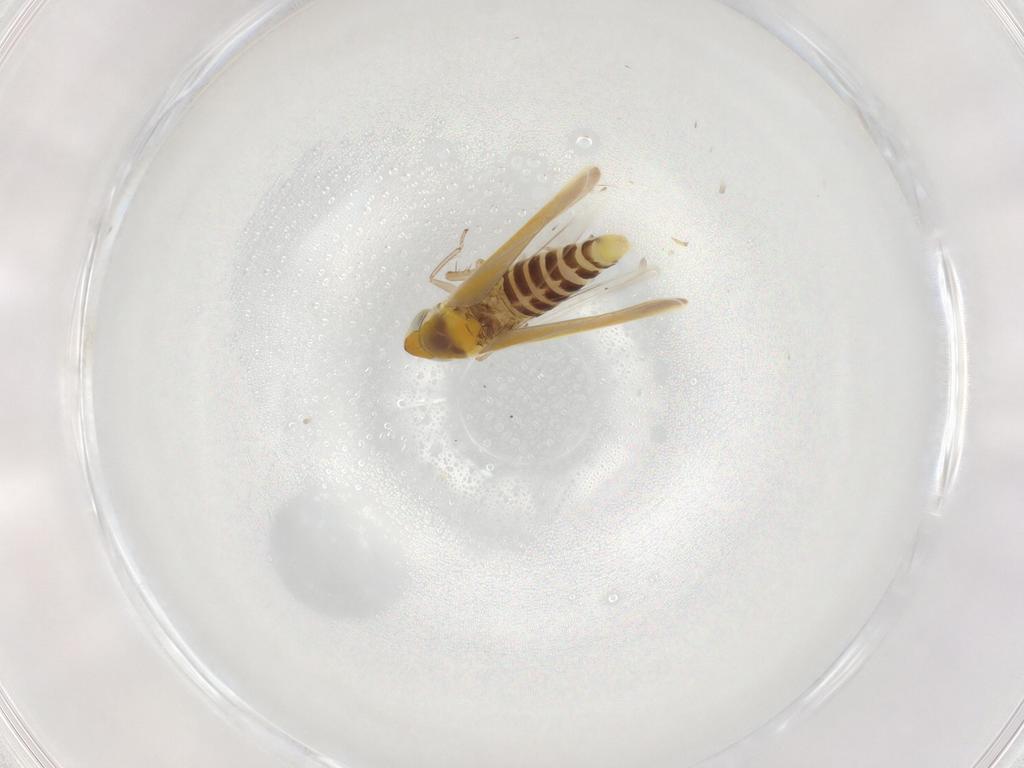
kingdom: Animalia
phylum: Arthropoda
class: Insecta
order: Hemiptera
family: Cicadellidae
